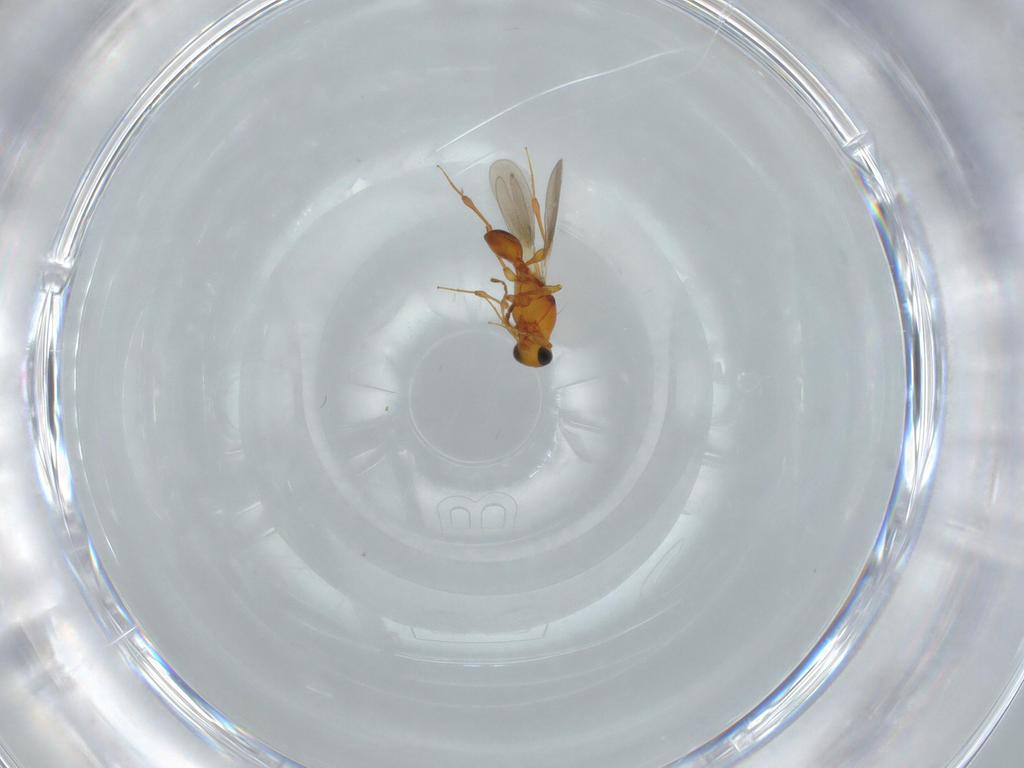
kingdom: Animalia
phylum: Arthropoda
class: Insecta
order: Hymenoptera
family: Platygastridae
